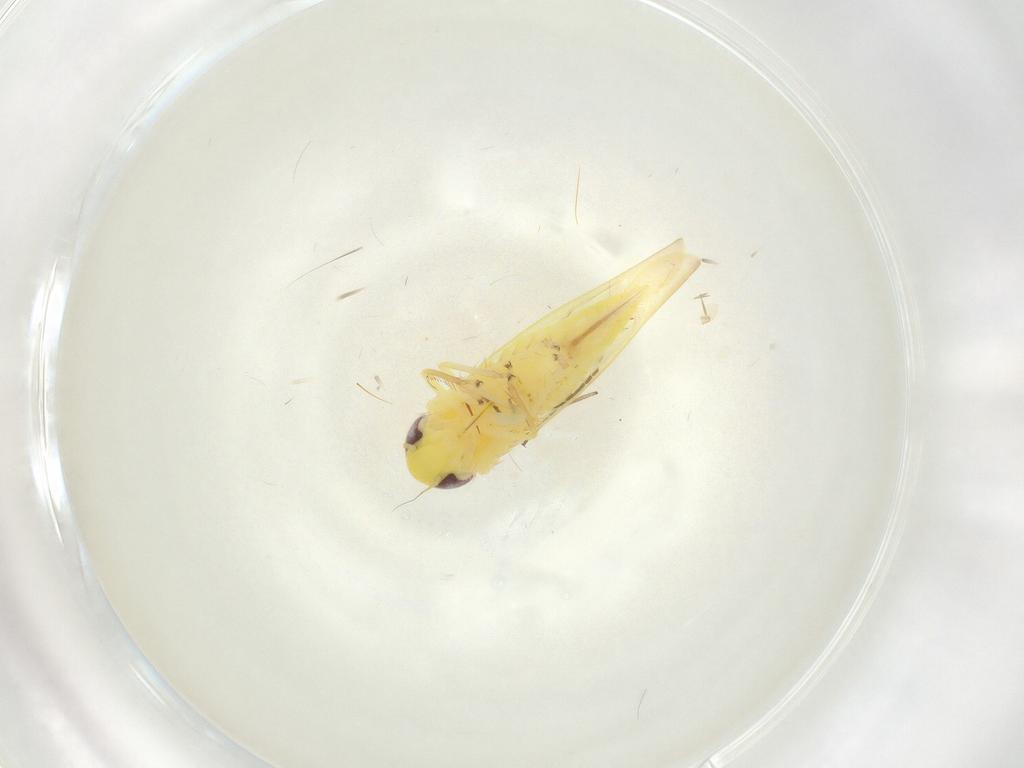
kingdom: Animalia
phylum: Arthropoda
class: Insecta
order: Hemiptera
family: Cicadellidae
